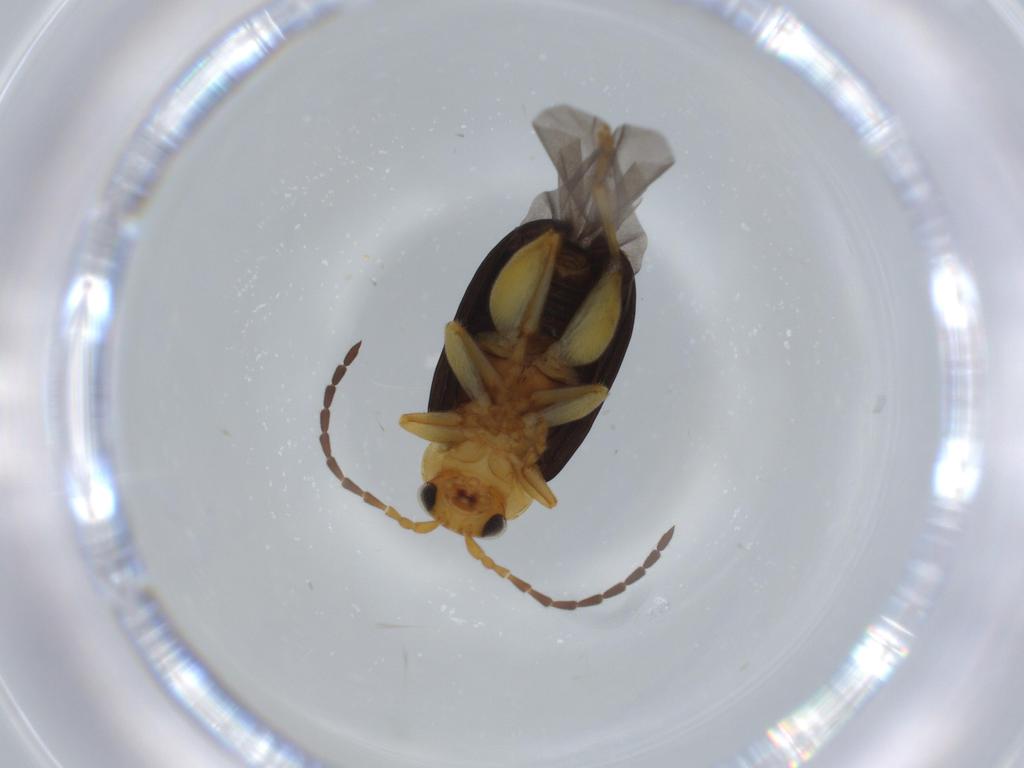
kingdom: Animalia
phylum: Arthropoda
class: Insecta
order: Coleoptera
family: Chrysomelidae
